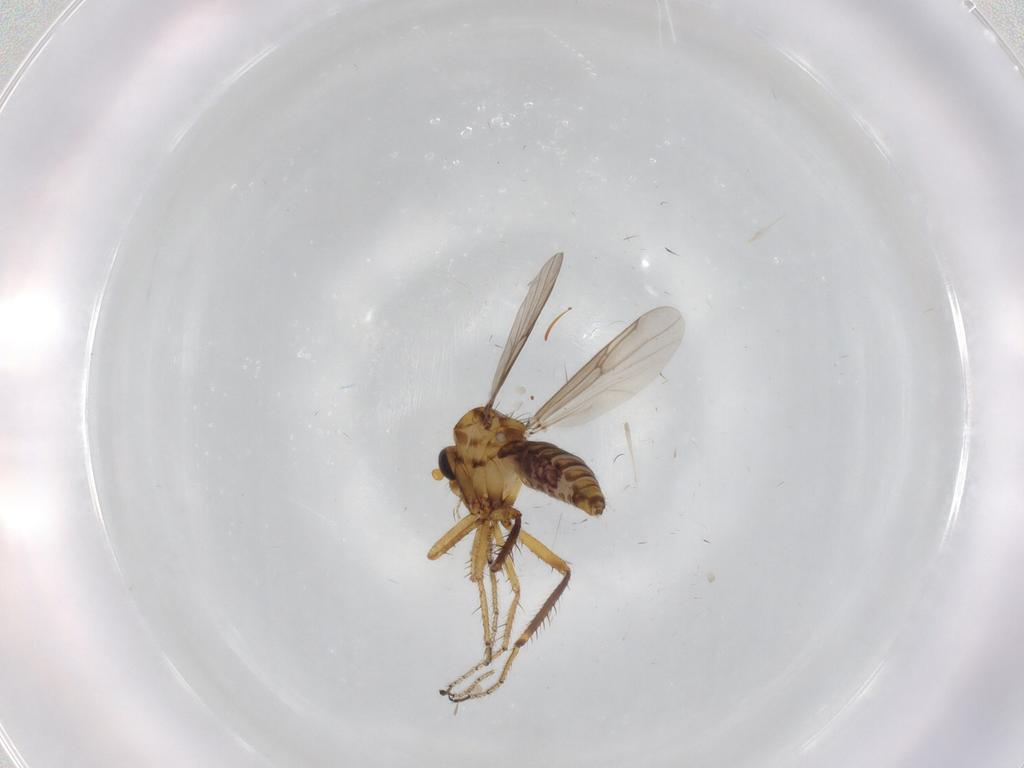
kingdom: Animalia
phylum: Arthropoda
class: Insecta
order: Diptera
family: Ceratopogonidae
